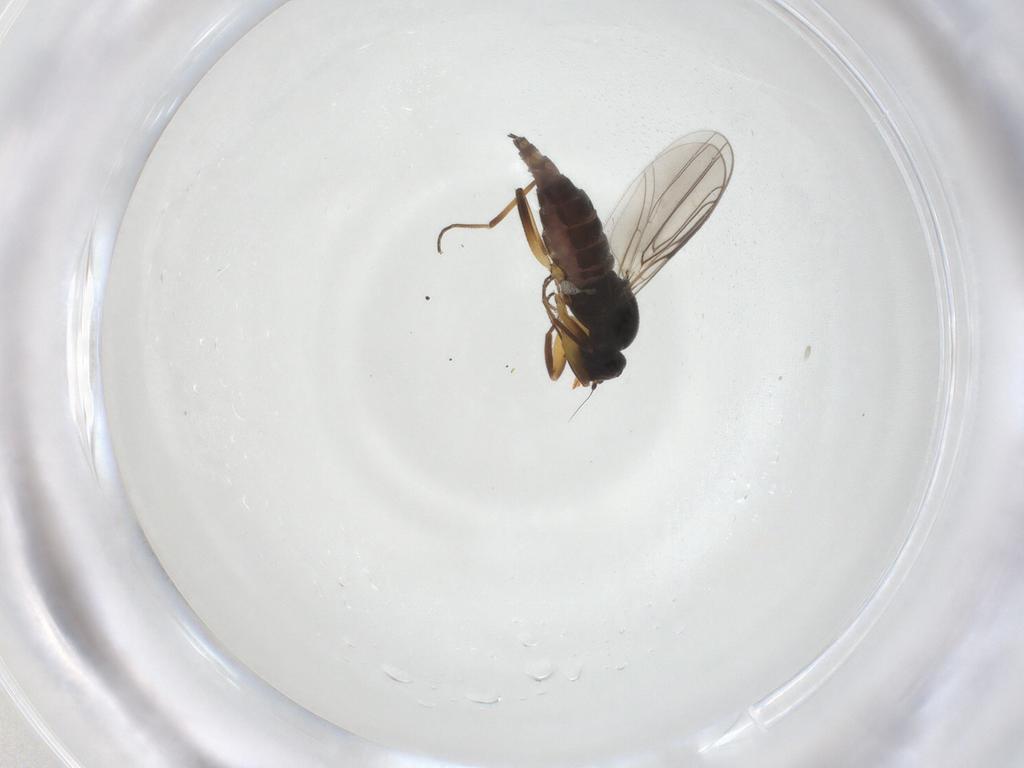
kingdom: Animalia
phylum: Arthropoda
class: Insecta
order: Diptera
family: Hybotidae
